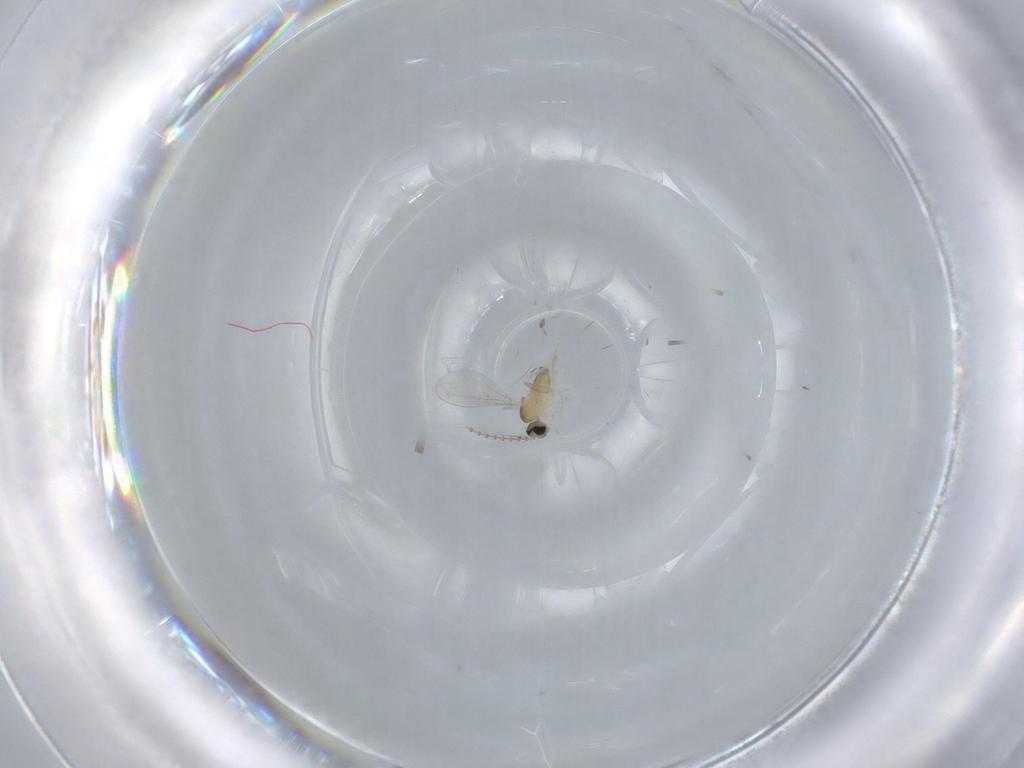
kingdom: Animalia
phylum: Arthropoda
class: Insecta
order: Diptera
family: Cecidomyiidae
